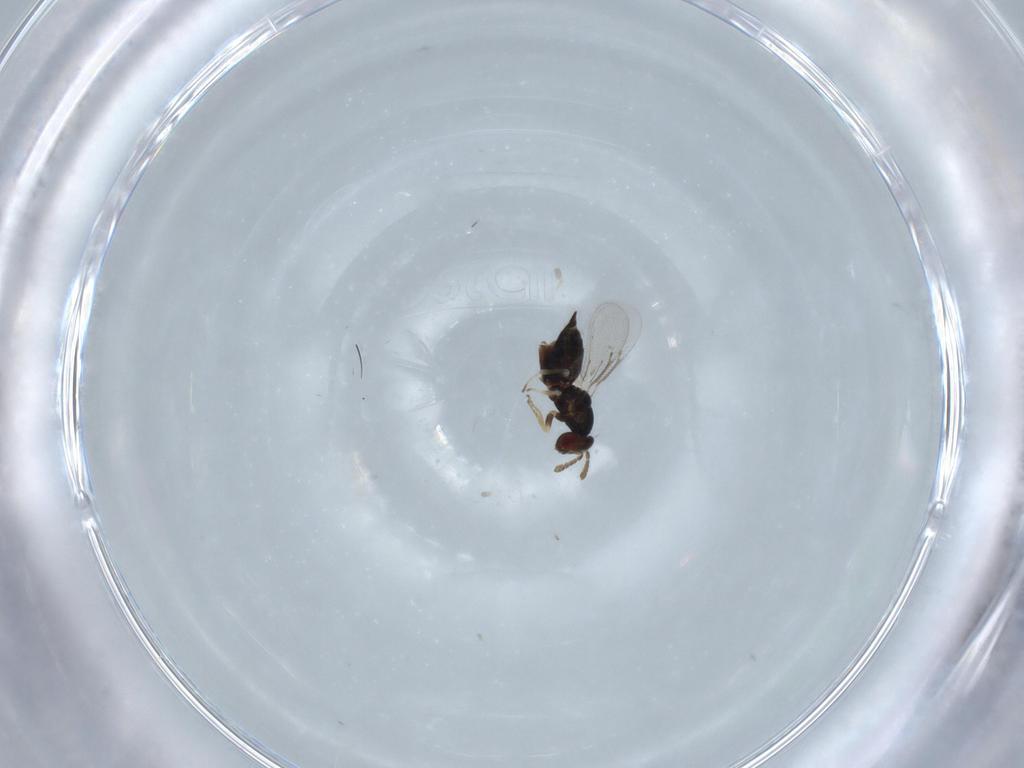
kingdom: Animalia
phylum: Arthropoda
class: Insecta
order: Hymenoptera
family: Eulophidae
